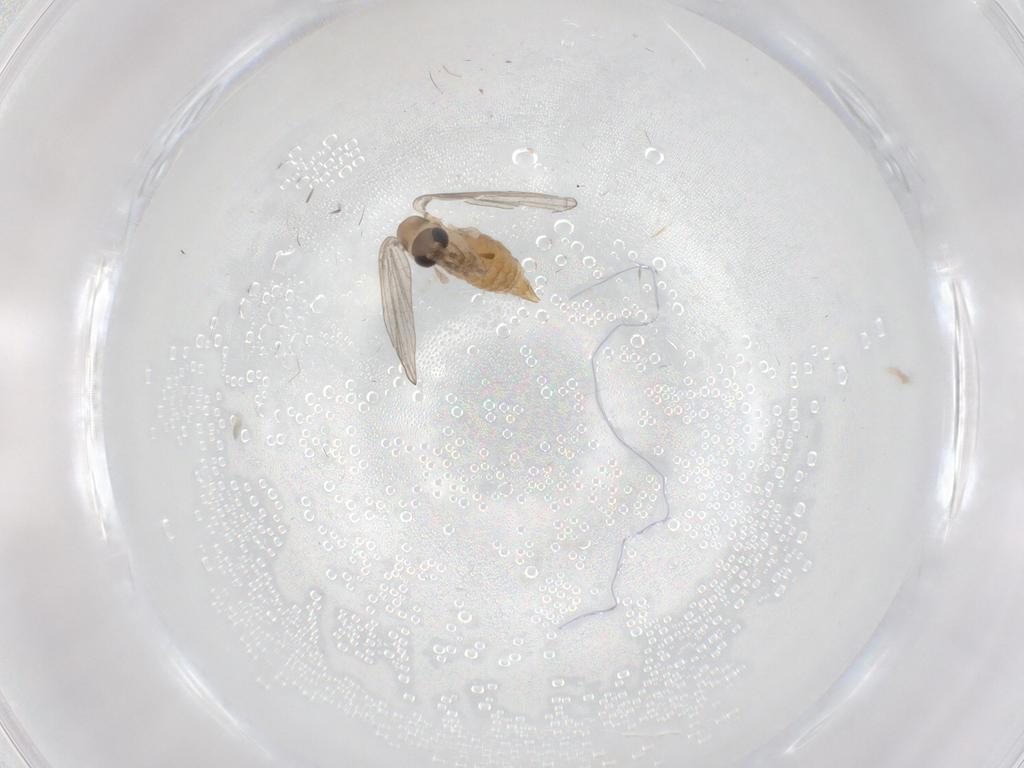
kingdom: Animalia
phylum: Arthropoda
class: Insecta
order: Diptera
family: Psychodidae
